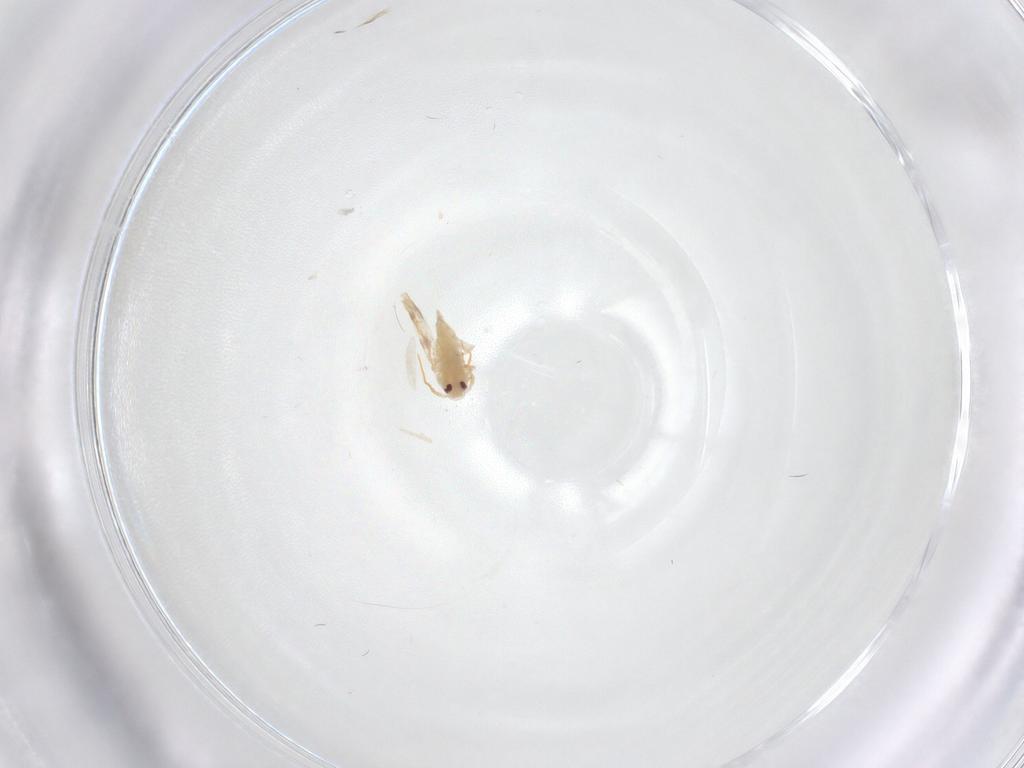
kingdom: Animalia
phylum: Arthropoda
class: Insecta
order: Hemiptera
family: Aleyrodidae
